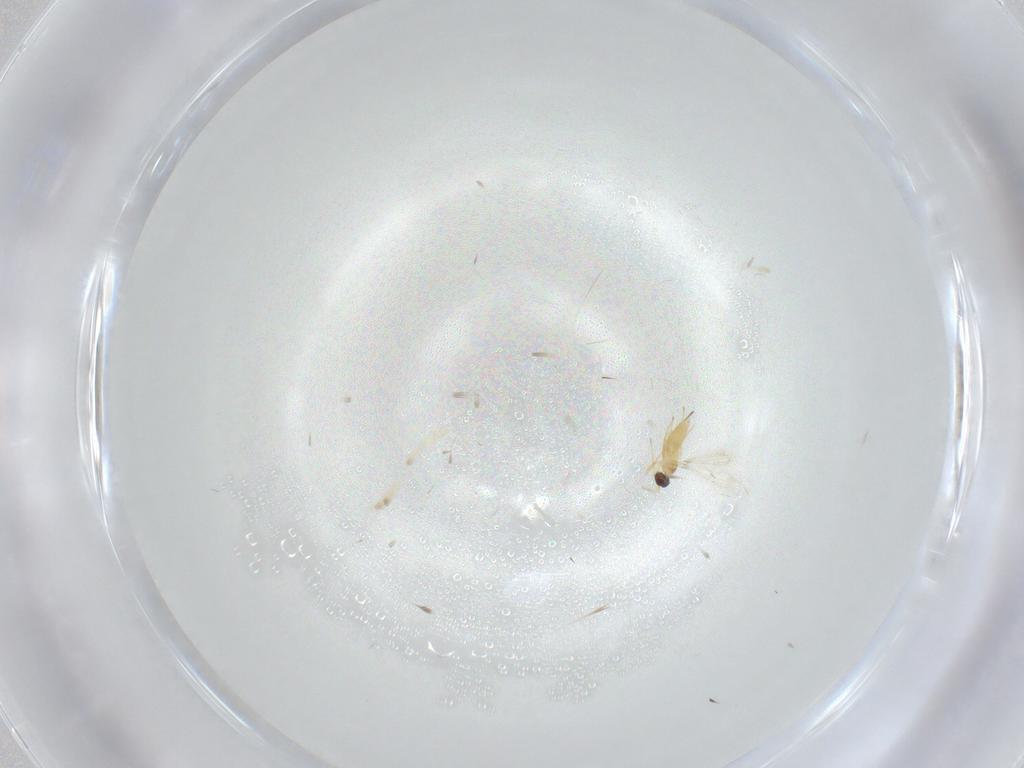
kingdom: Animalia
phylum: Arthropoda
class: Insecta
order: Hymenoptera
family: Mymaridae
